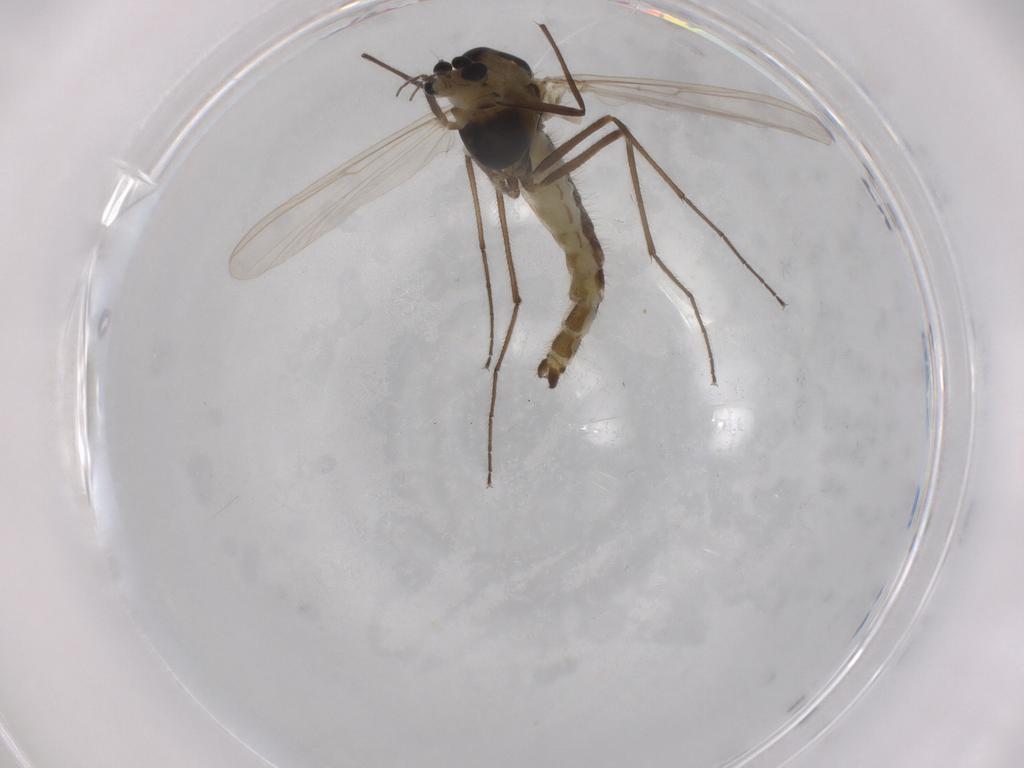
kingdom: Animalia
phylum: Arthropoda
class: Insecta
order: Diptera
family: Chironomidae
